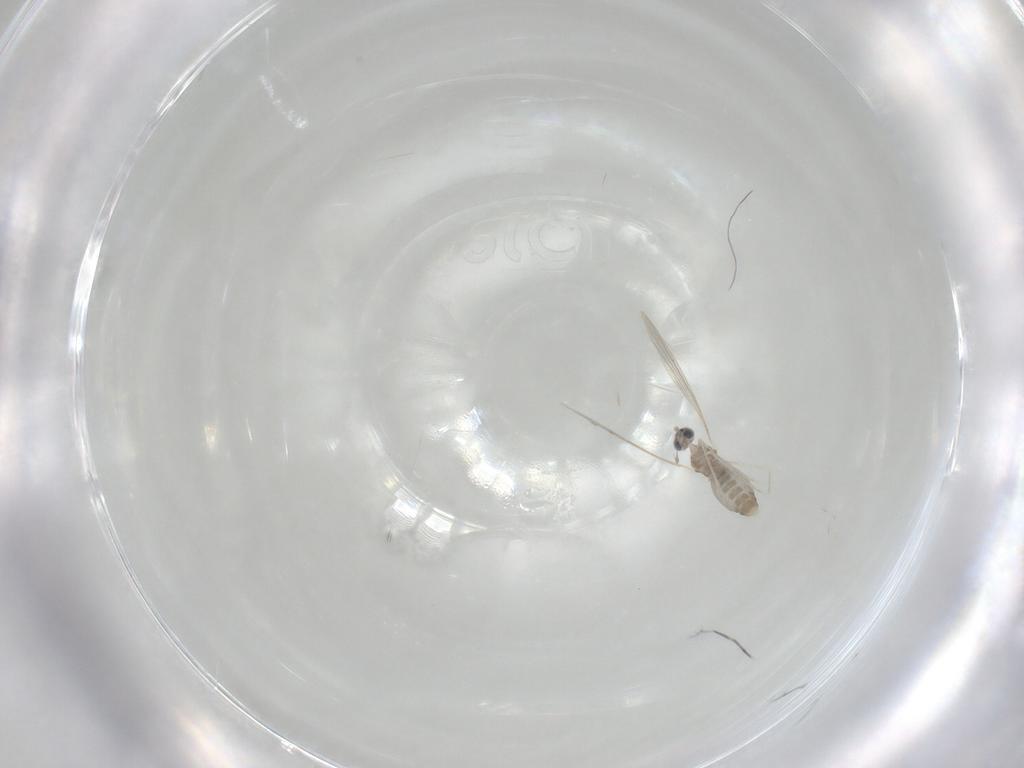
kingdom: Animalia
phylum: Arthropoda
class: Insecta
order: Diptera
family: Cecidomyiidae
